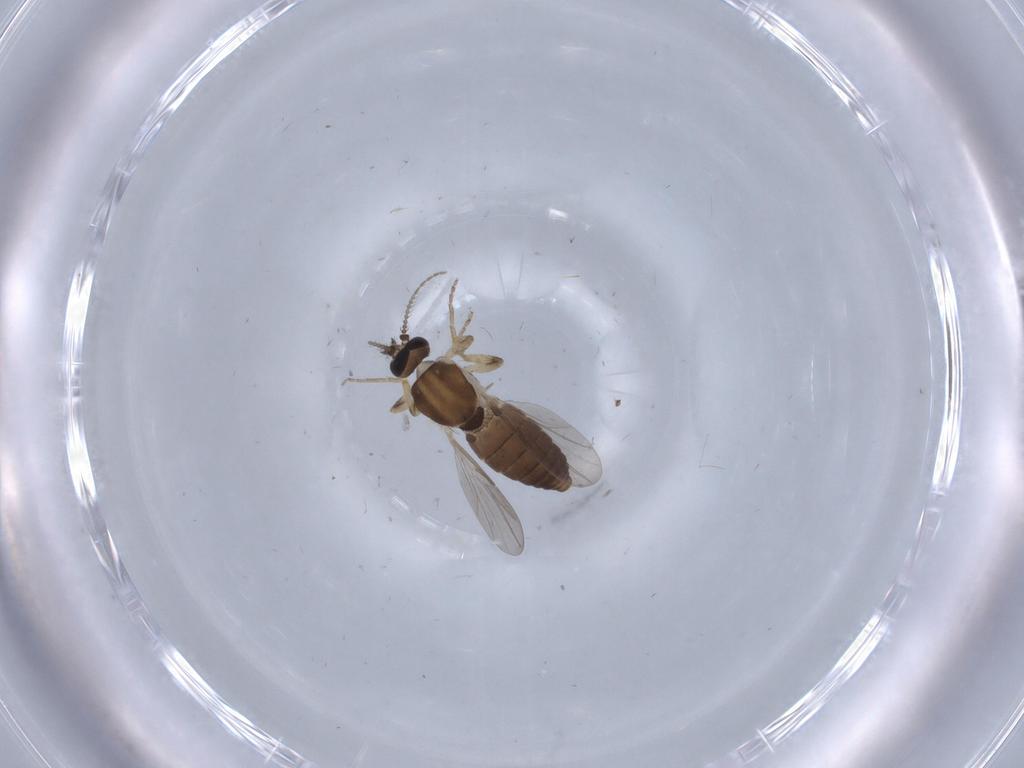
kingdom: Animalia
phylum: Arthropoda
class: Insecta
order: Diptera
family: Ceratopogonidae
